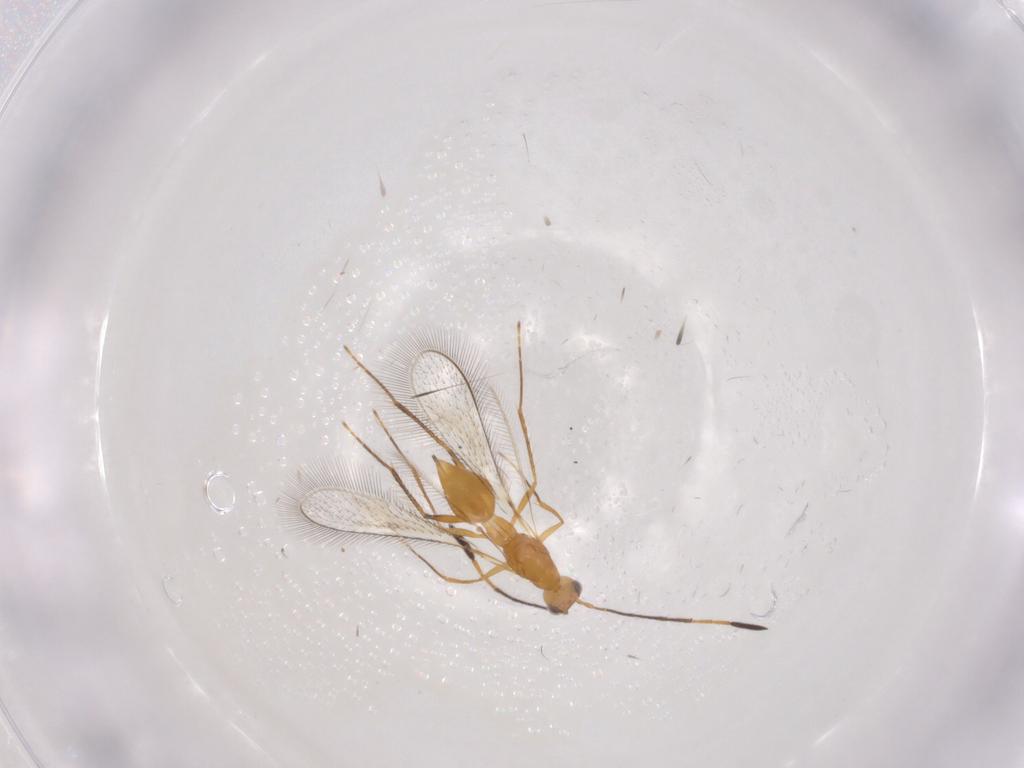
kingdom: Animalia
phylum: Arthropoda
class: Insecta
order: Hymenoptera
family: Mymaridae
